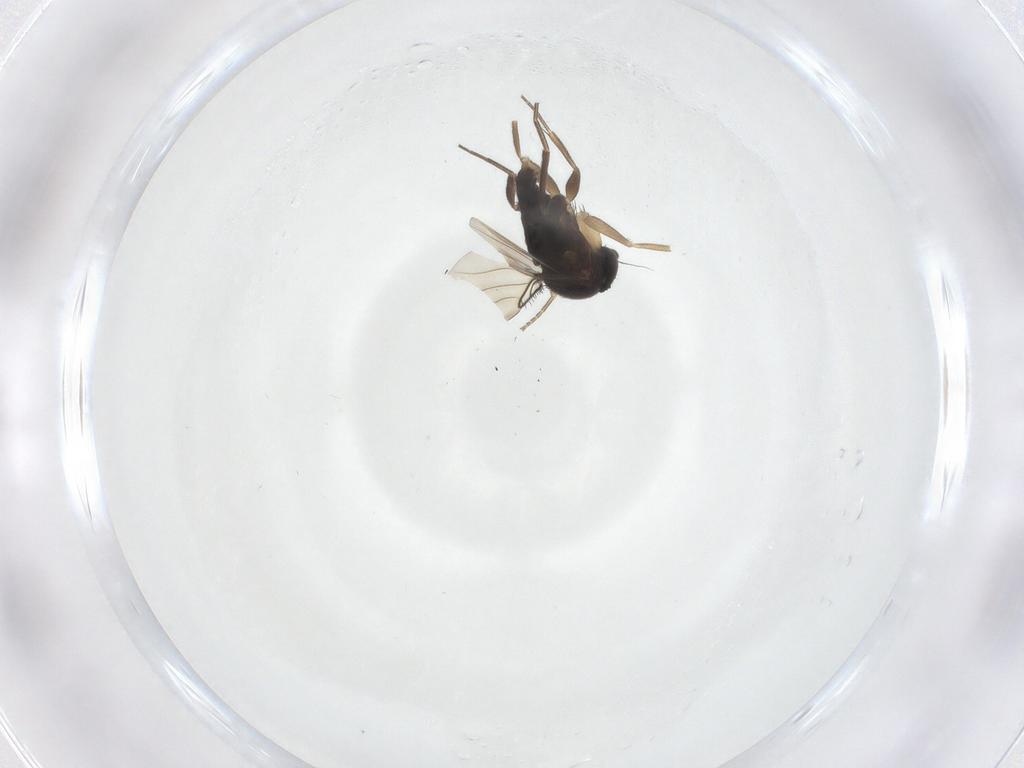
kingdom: Animalia
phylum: Arthropoda
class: Insecta
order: Diptera
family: Phoridae
